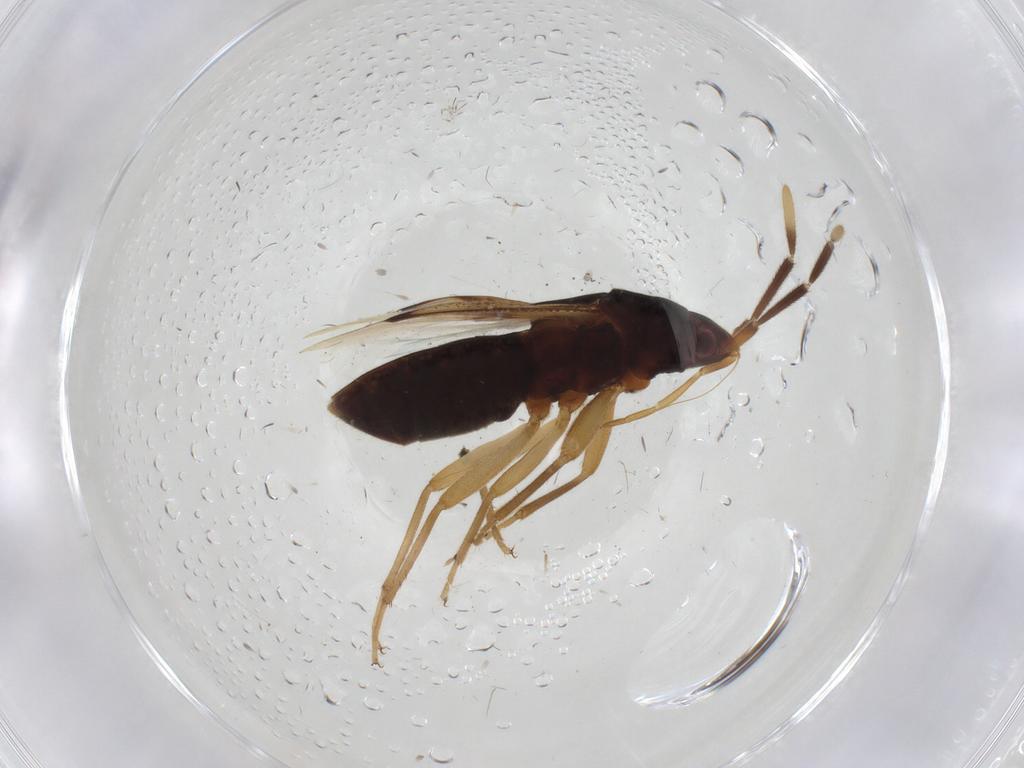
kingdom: Animalia
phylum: Arthropoda
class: Insecta
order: Hemiptera
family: Rhyparochromidae
